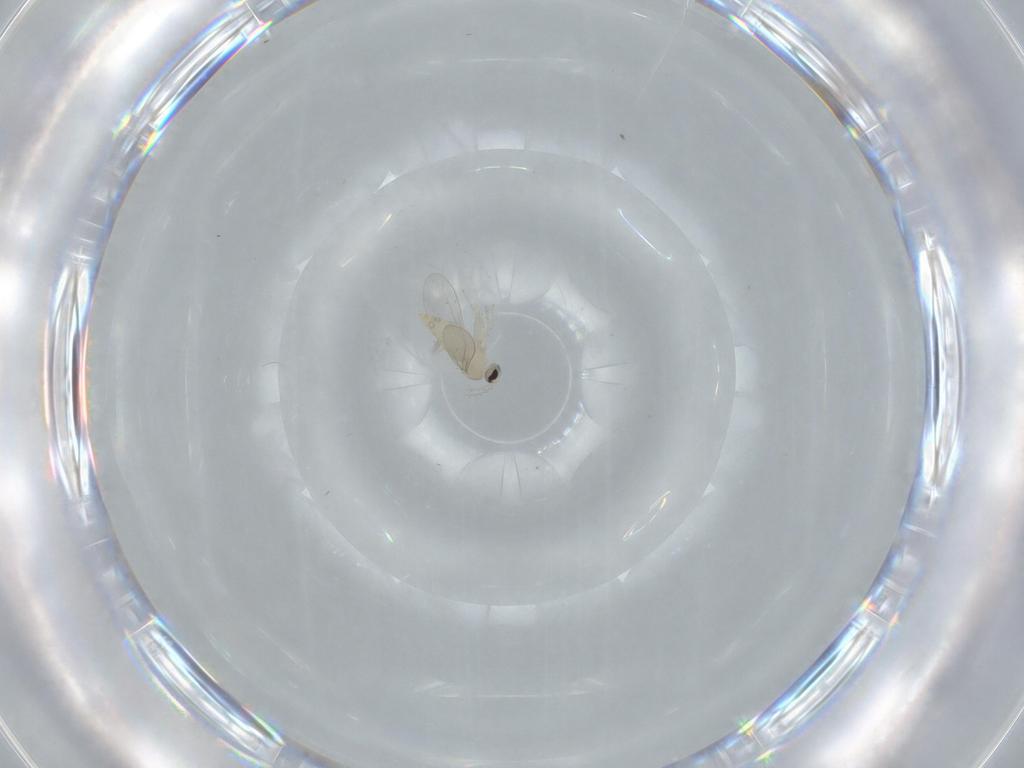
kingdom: Animalia
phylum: Arthropoda
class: Insecta
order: Diptera
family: Cecidomyiidae
